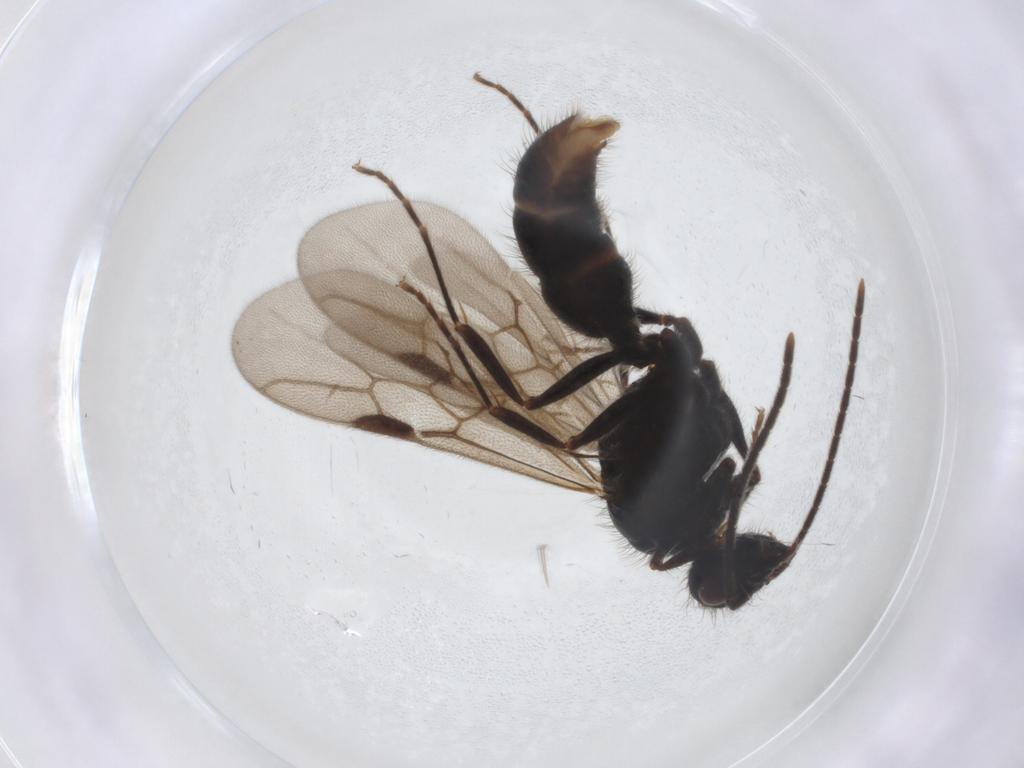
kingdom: Animalia
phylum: Arthropoda
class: Insecta
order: Hymenoptera
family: Formicidae
